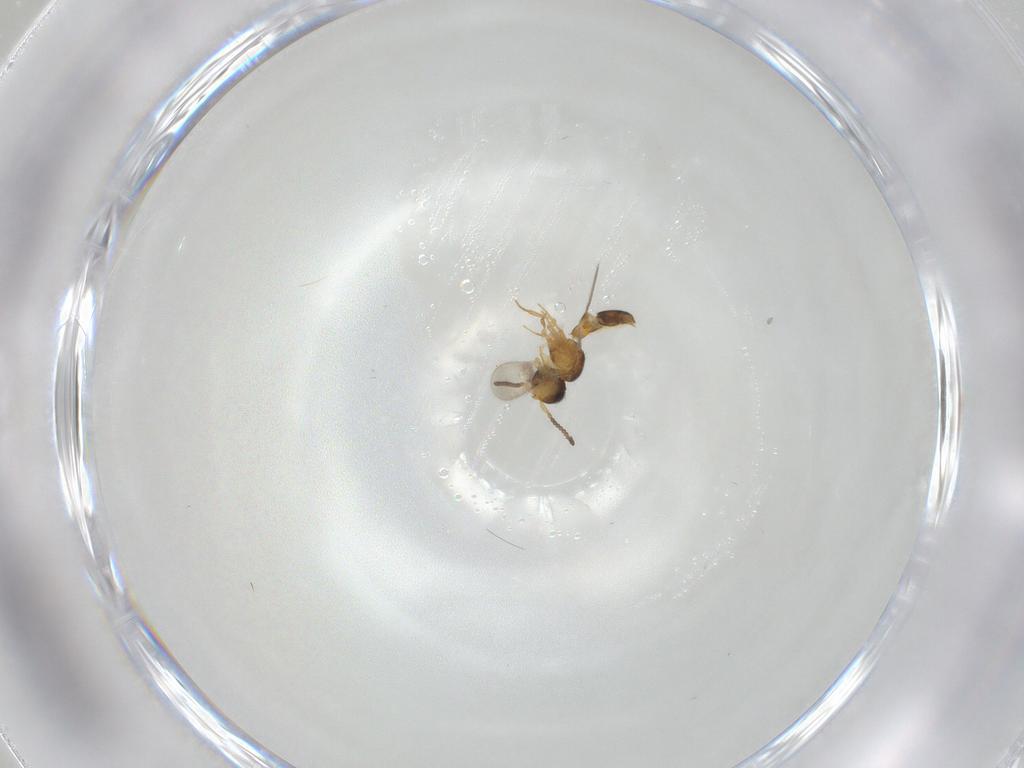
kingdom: Animalia
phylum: Arthropoda
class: Insecta
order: Hymenoptera
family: Scelionidae
